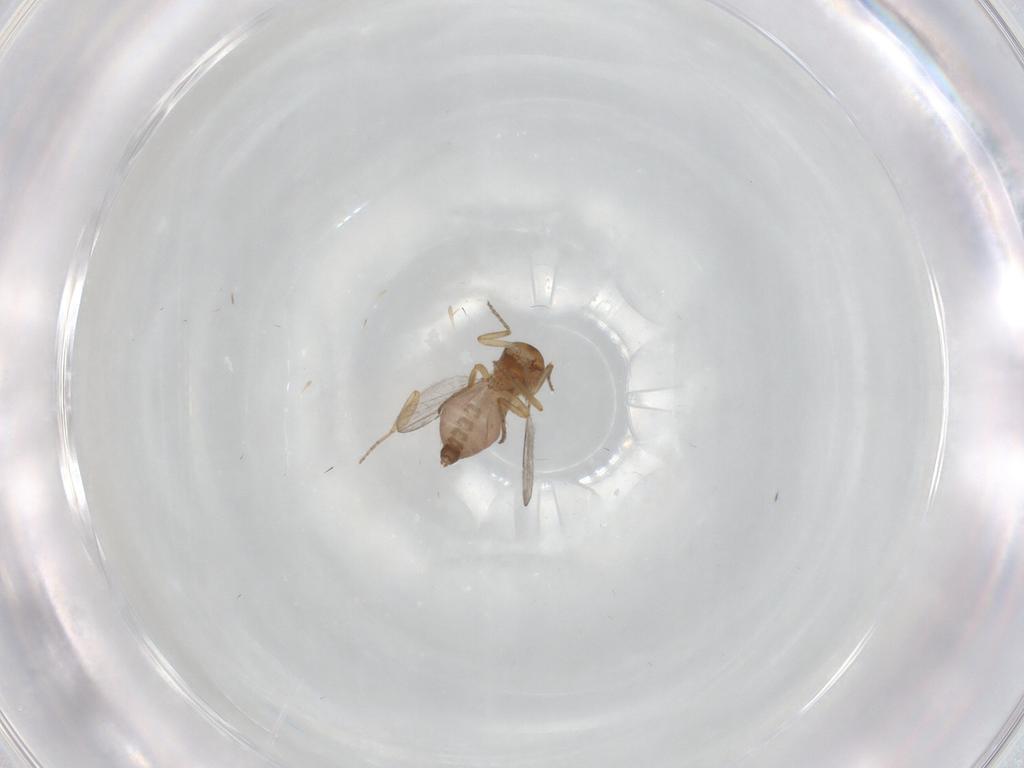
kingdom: Animalia
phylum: Arthropoda
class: Insecta
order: Diptera
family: Ceratopogonidae
